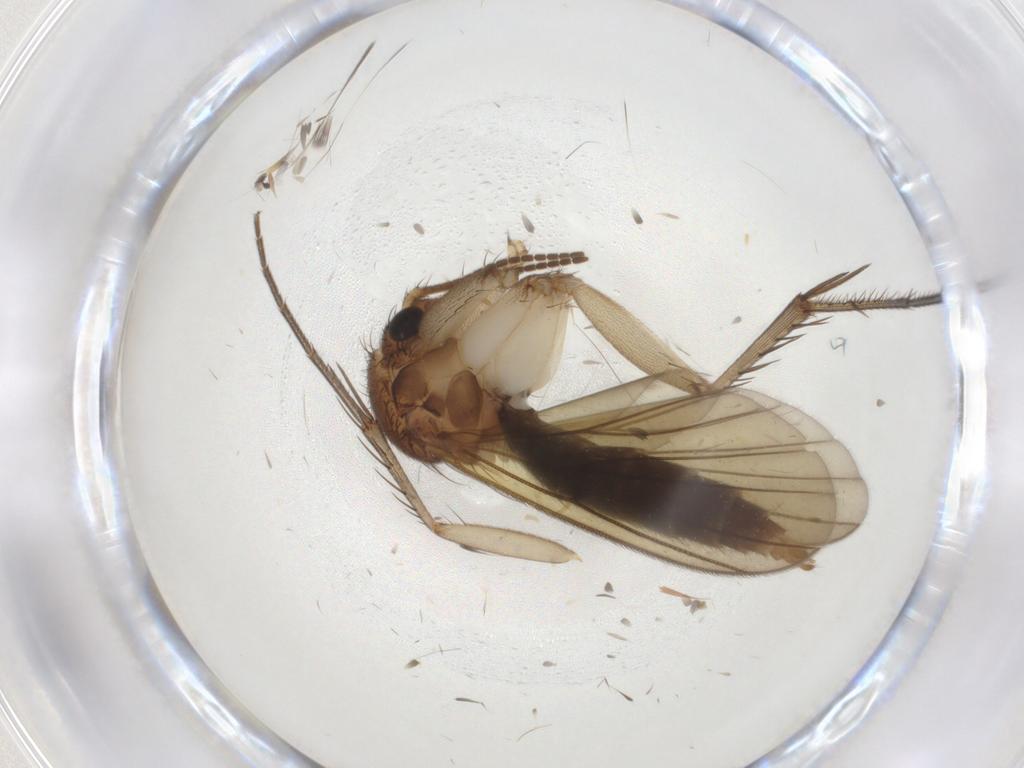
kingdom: Animalia
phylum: Arthropoda
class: Insecta
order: Diptera
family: Mycetophilidae
